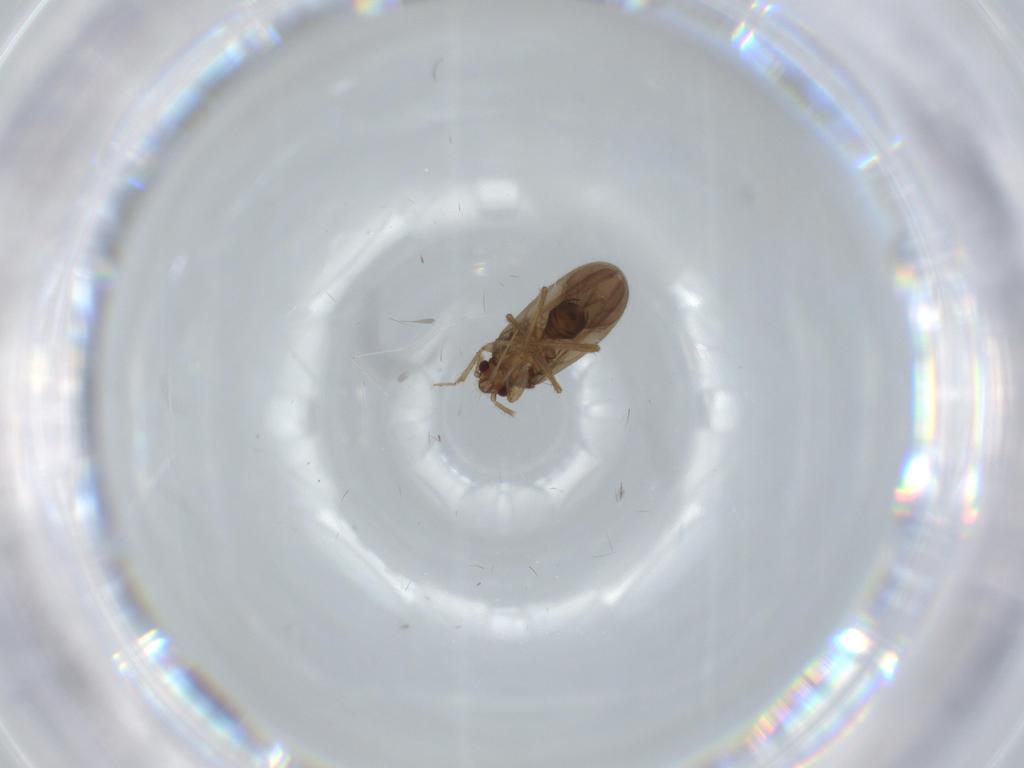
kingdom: Animalia
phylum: Arthropoda
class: Insecta
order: Hemiptera
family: Ceratocombidae
